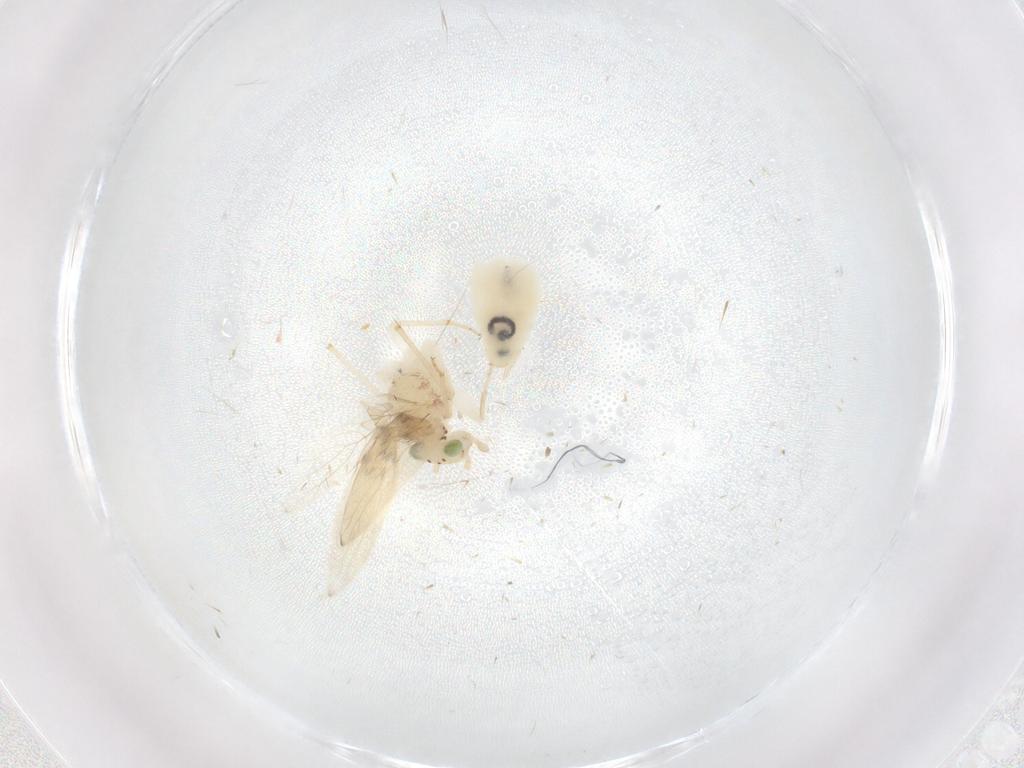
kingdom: Animalia
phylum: Arthropoda
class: Insecta
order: Psocodea
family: Lepidopsocidae
